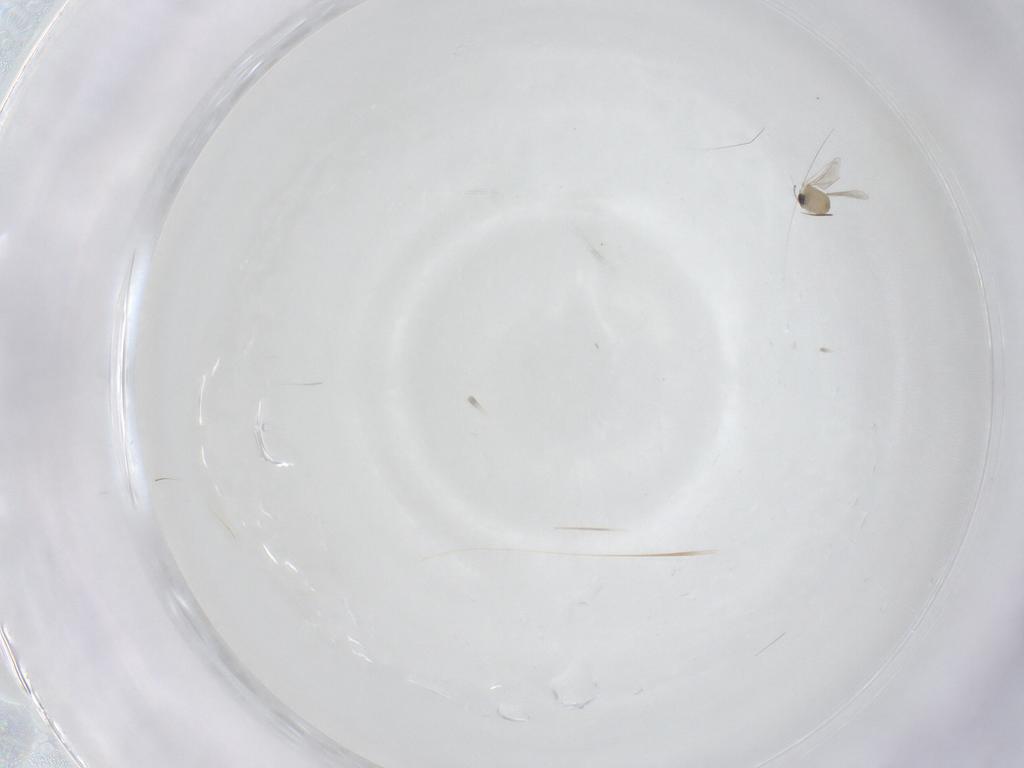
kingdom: Animalia
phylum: Arthropoda
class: Insecta
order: Diptera
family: Cecidomyiidae
